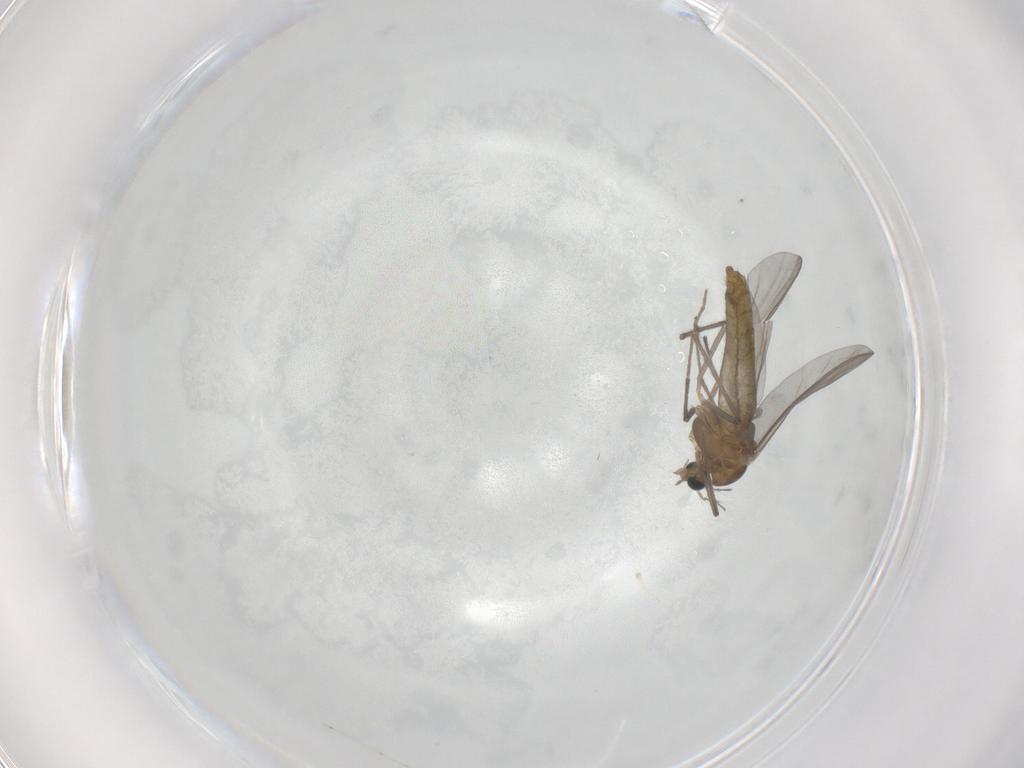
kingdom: Animalia
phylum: Arthropoda
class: Insecta
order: Diptera
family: Chironomidae
